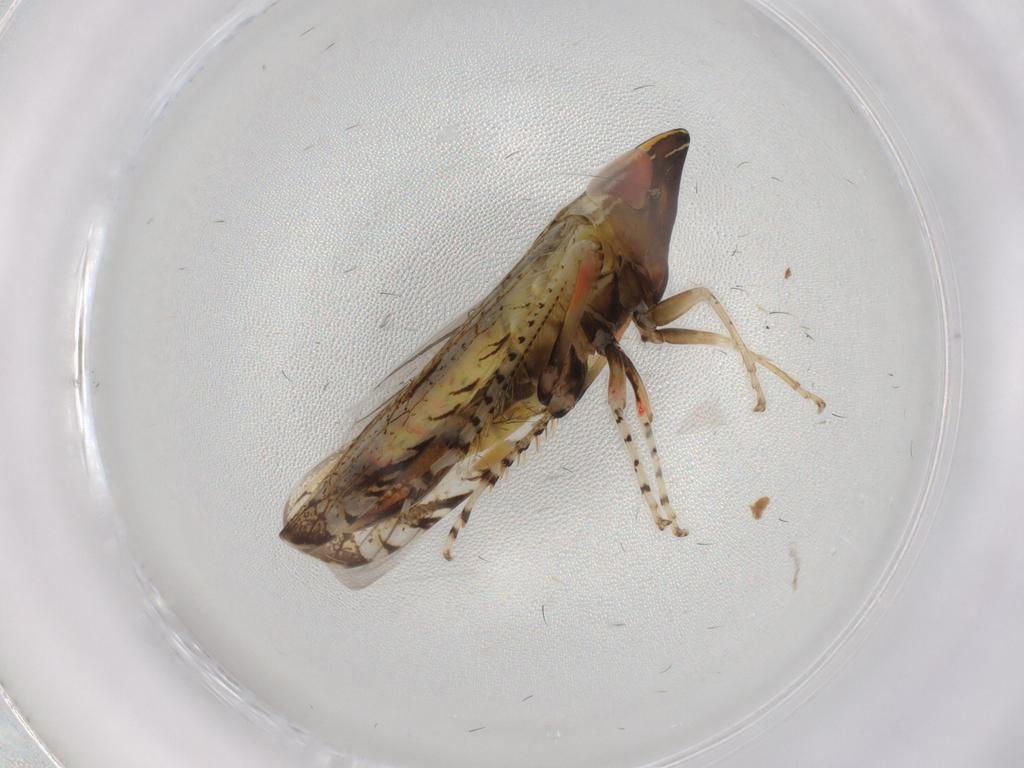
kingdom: Animalia
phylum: Arthropoda
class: Insecta
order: Hemiptera
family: Cicadellidae
